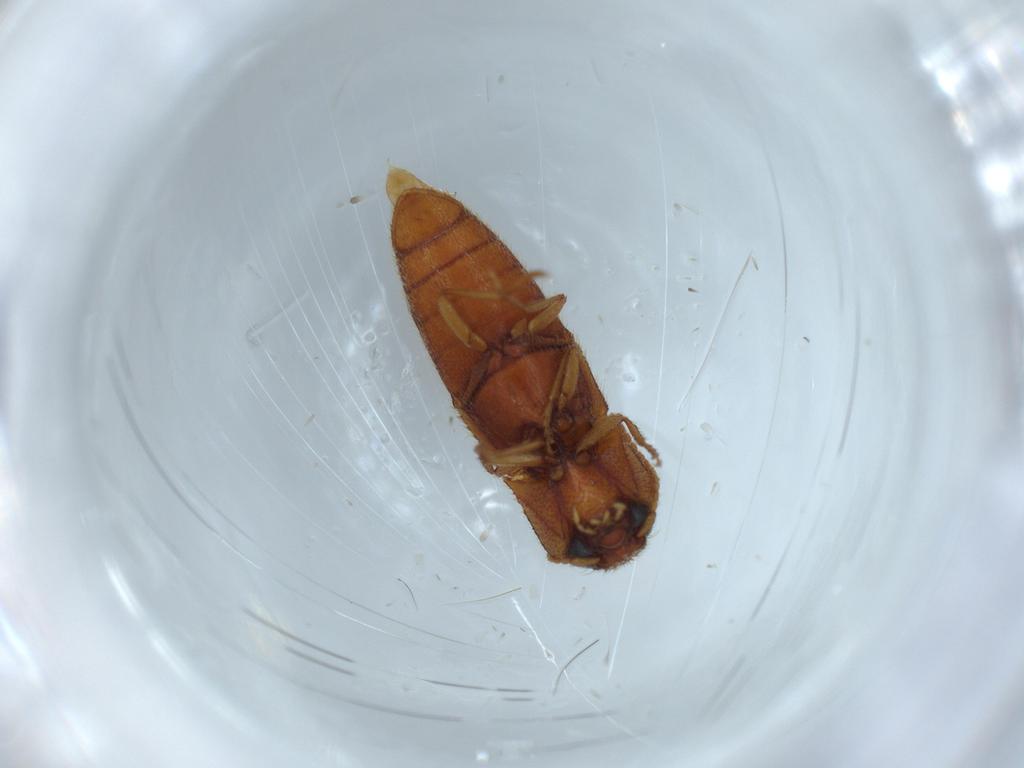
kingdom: Animalia
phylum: Arthropoda
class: Insecta
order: Coleoptera
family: Elateridae
